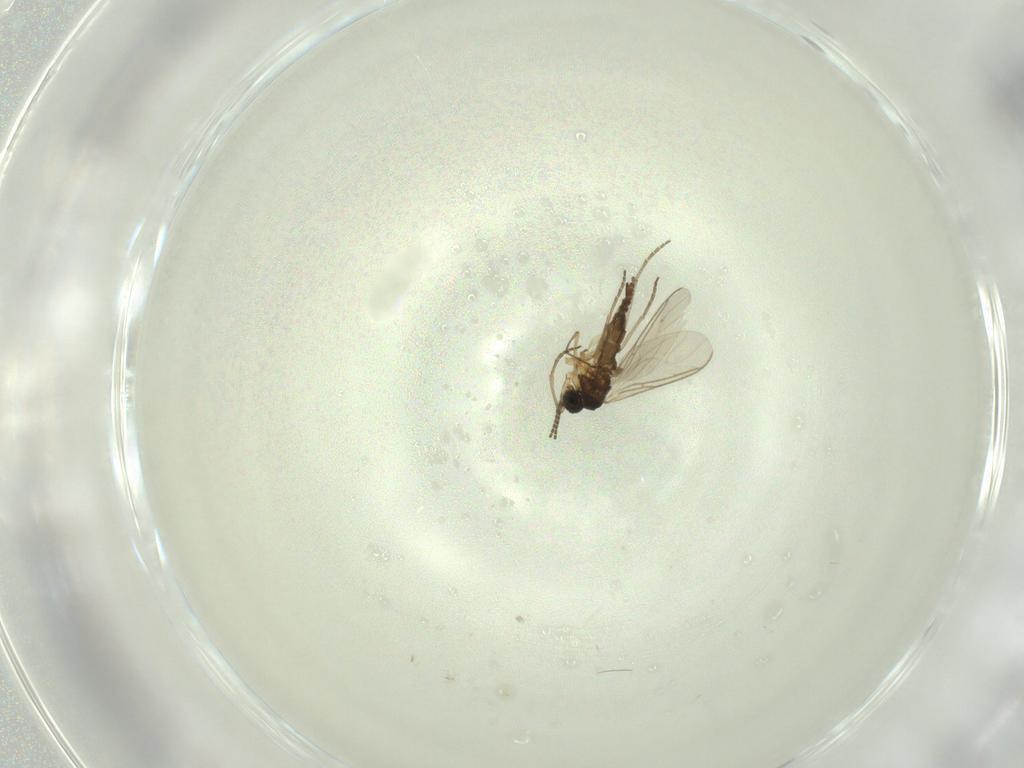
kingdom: Animalia
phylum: Arthropoda
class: Insecta
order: Diptera
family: Sciaridae
